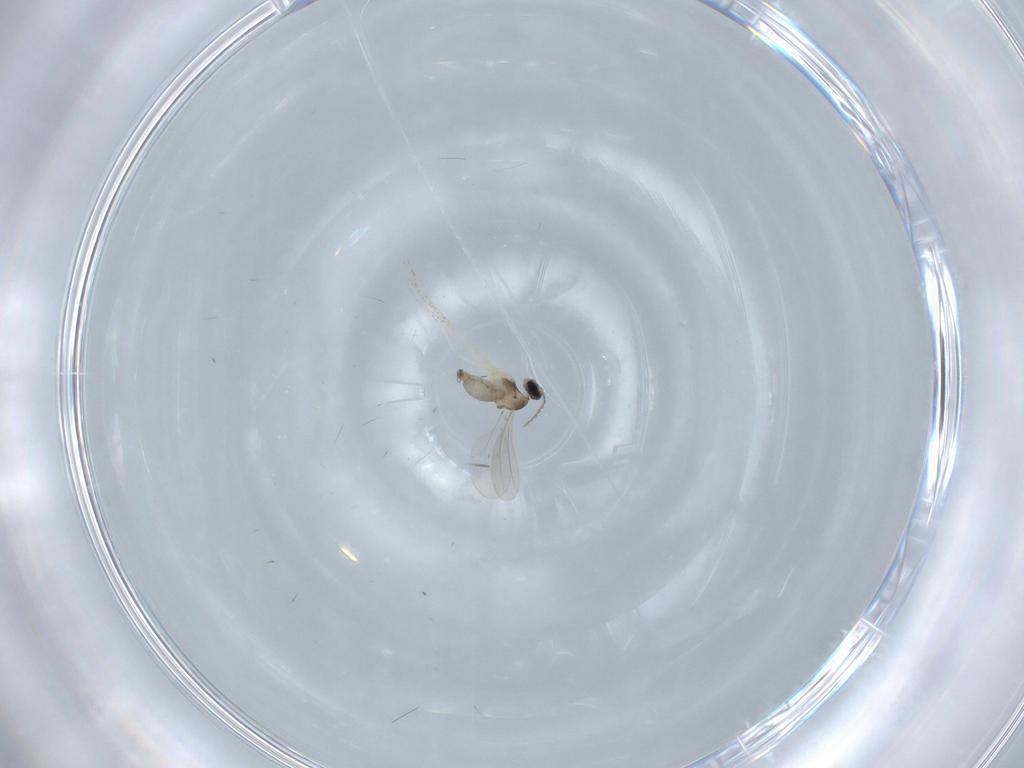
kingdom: Animalia
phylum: Arthropoda
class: Insecta
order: Diptera
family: Cecidomyiidae
